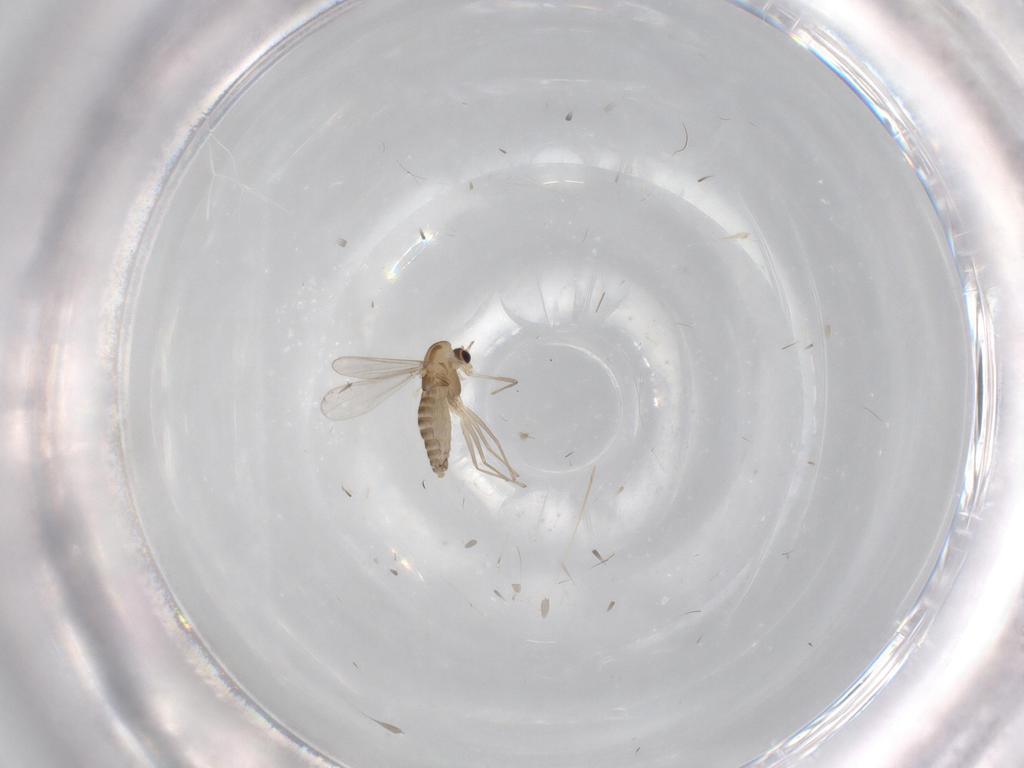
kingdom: Animalia
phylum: Arthropoda
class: Insecta
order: Diptera
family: Chironomidae
